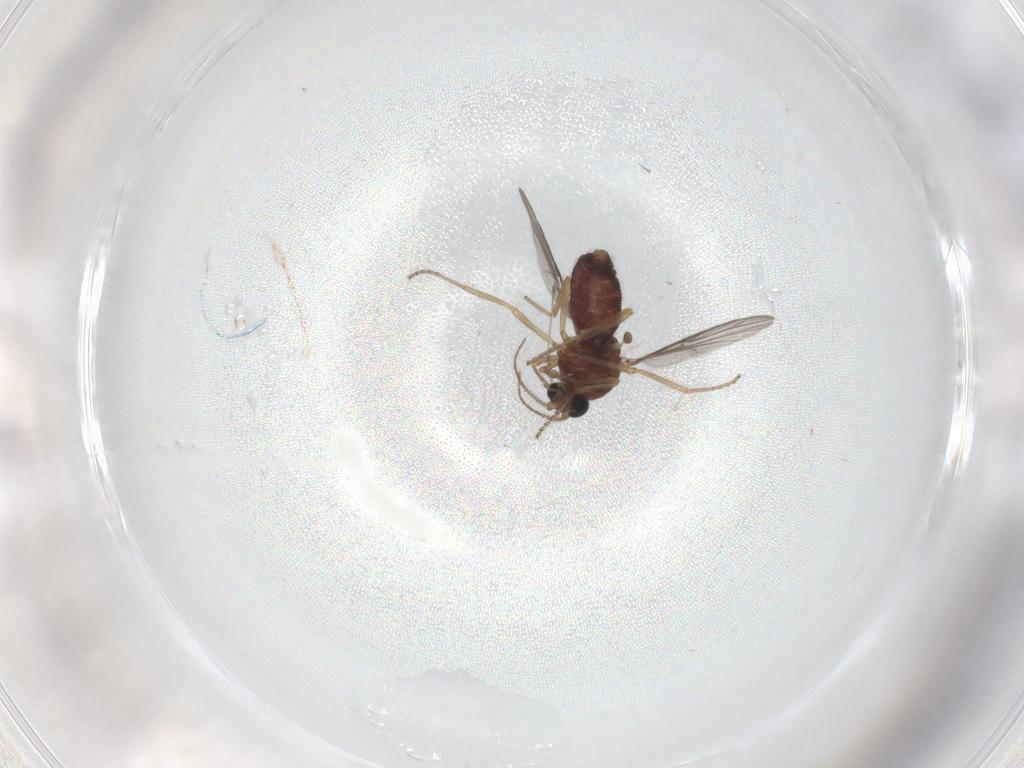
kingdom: Animalia
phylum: Arthropoda
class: Insecta
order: Diptera
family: Ceratopogonidae
